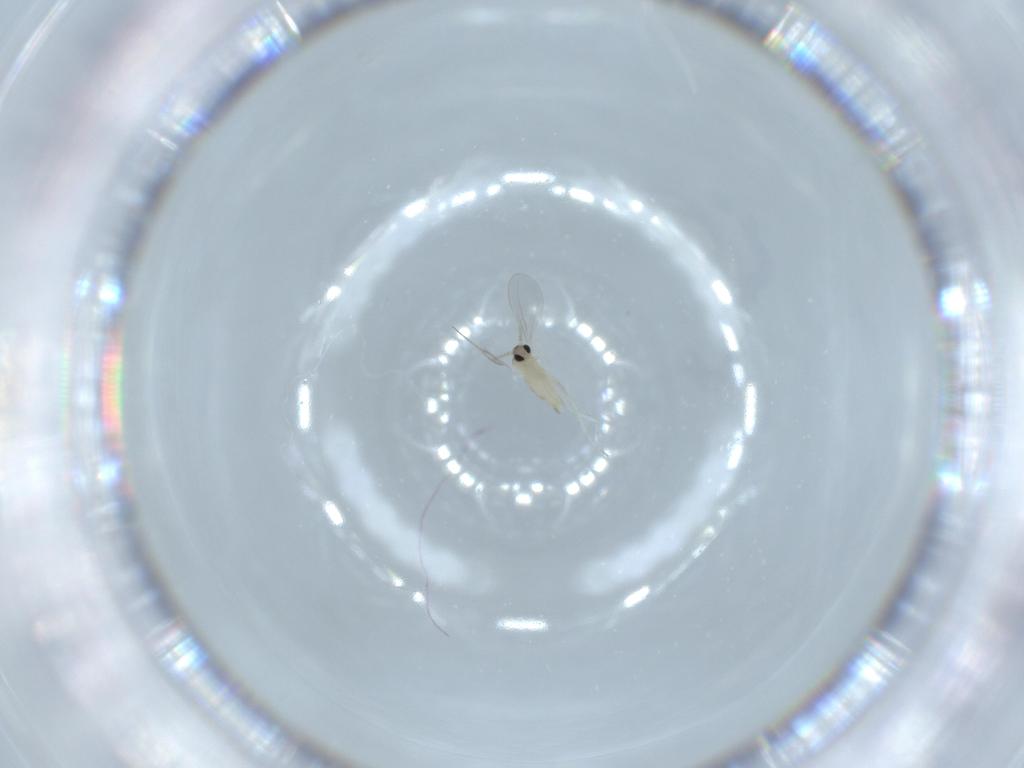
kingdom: Animalia
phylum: Arthropoda
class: Insecta
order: Diptera
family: Cecidomyiidae
